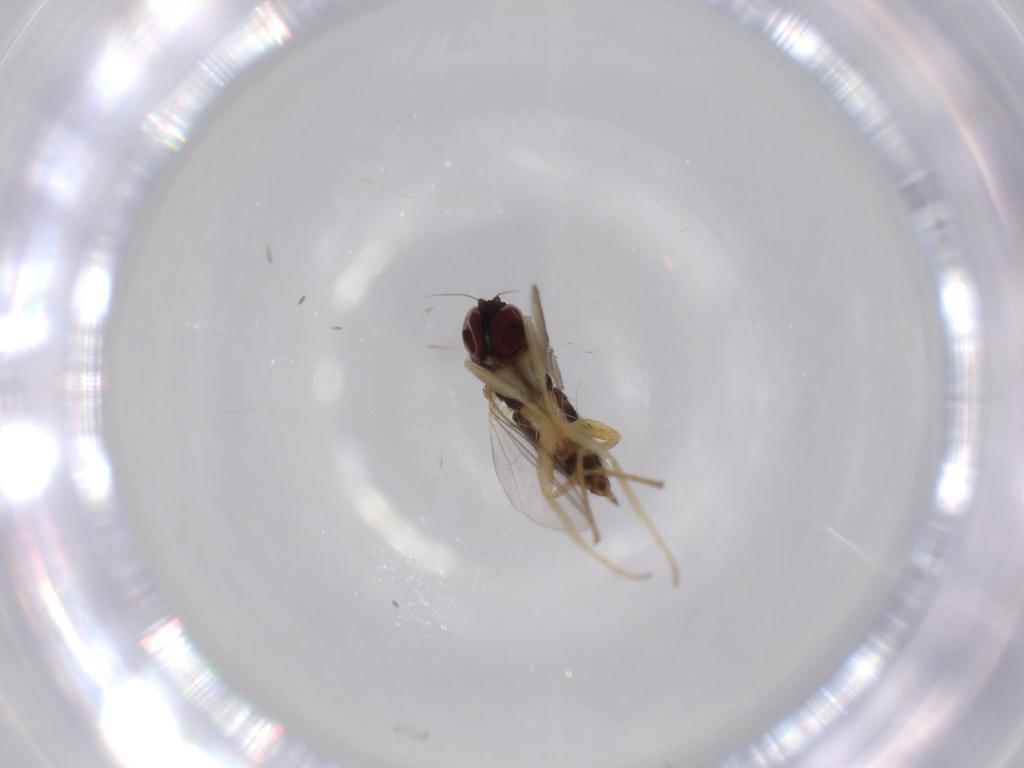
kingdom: Animalia
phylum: Arthropoda
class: Insecta
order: Diptera
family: Dolichopodidae
